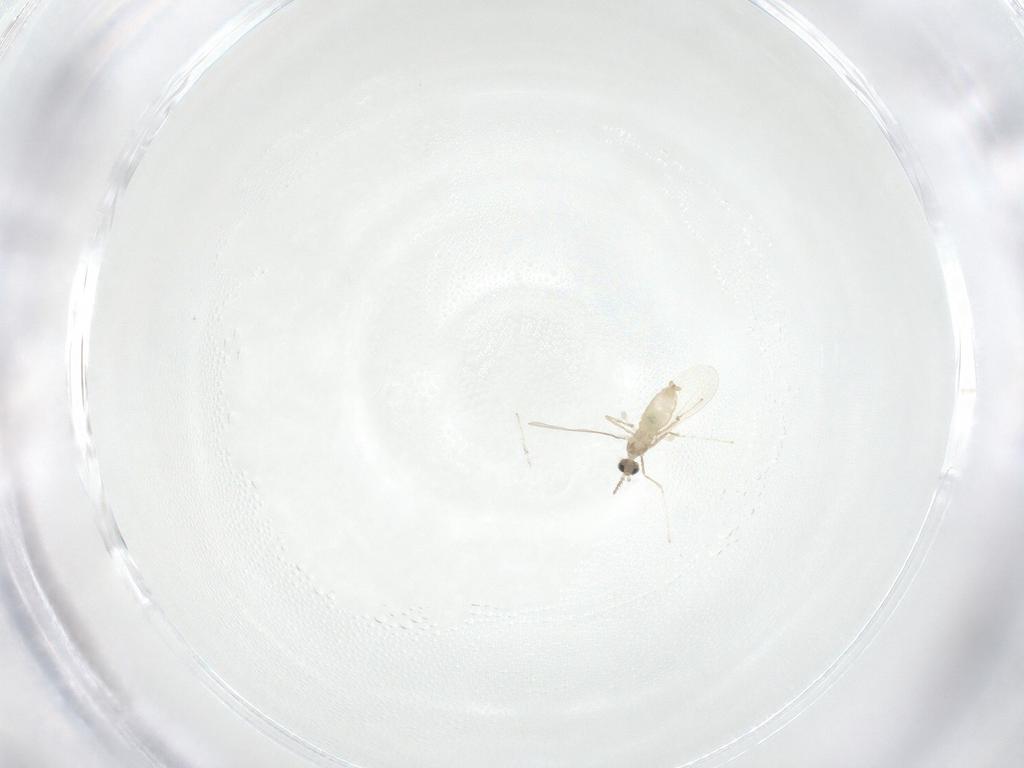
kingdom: Animalia
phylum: Arthropoda
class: Insecta
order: Diptera
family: Cecidomyiidae
